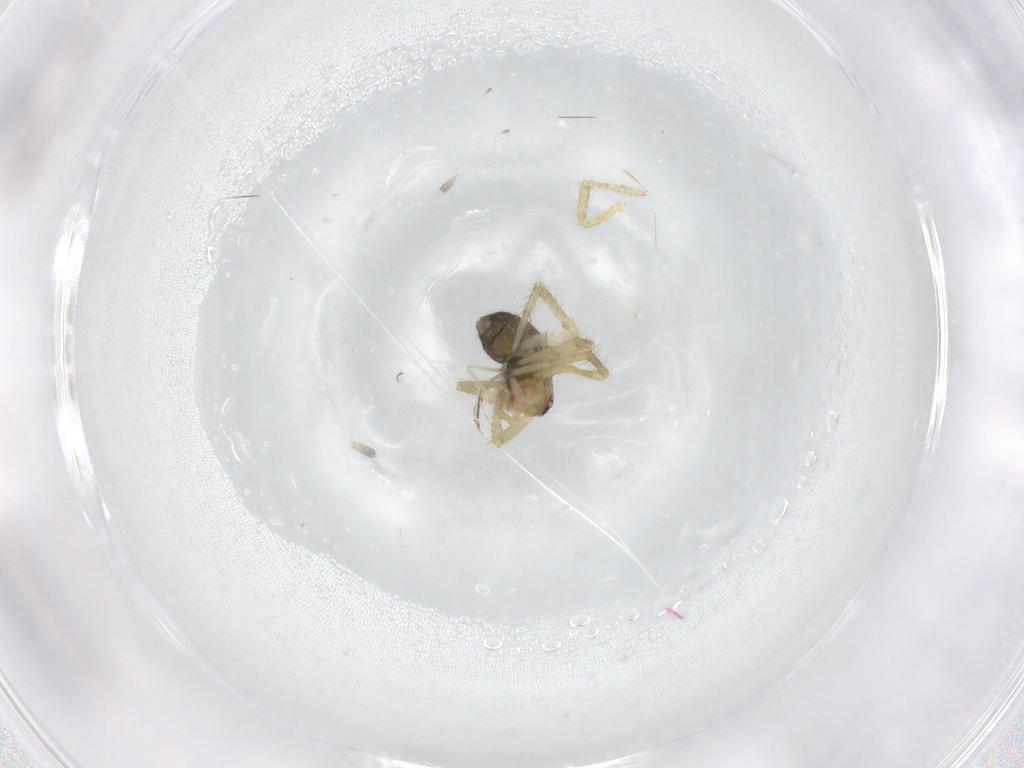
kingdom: Animalia
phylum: Arthropoda
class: Arachnida
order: Araneae
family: Nesticidae
